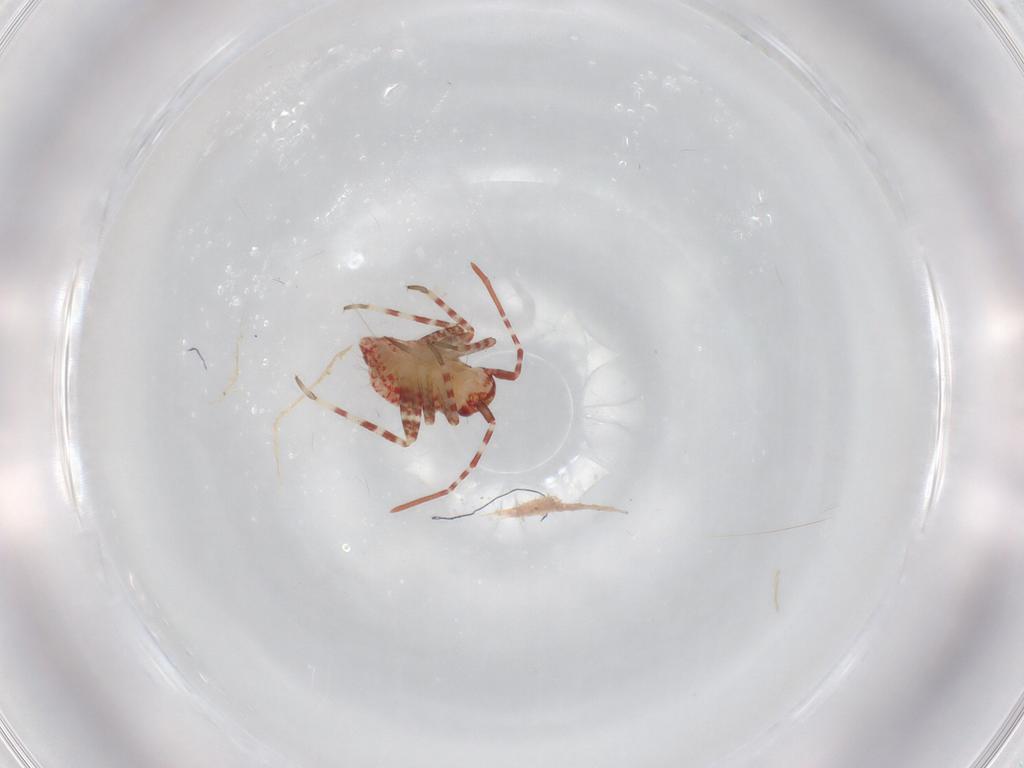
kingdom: Animalia
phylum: Arthropoda
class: Insecta
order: Hemiptera
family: Miridae
